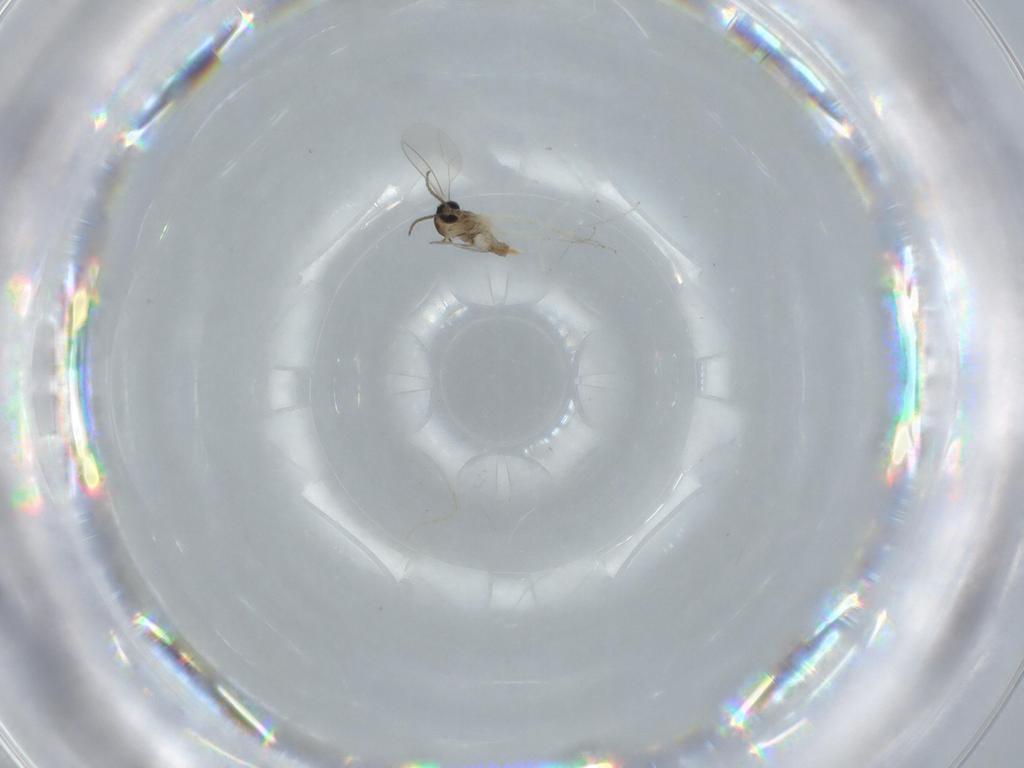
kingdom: Animalia
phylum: Arthropoda
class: Insecta
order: Diptera
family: Cecidomyiidae
